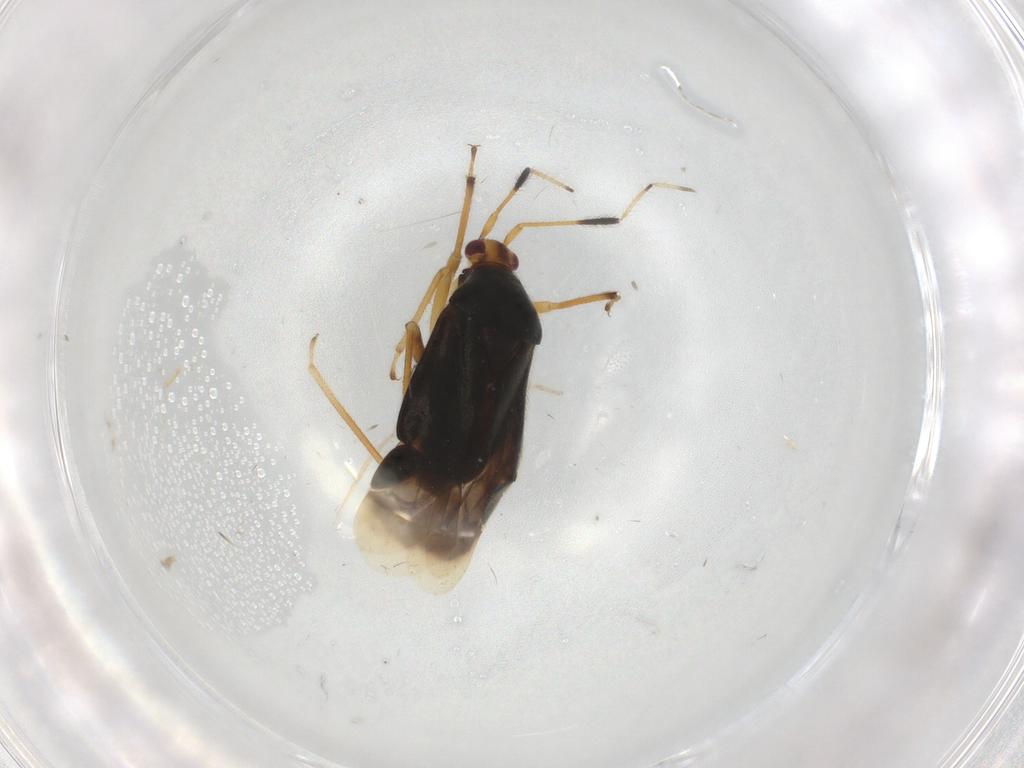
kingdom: Animalia
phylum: Arthropoda
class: Insecta
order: Hemiptera
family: Miridae
